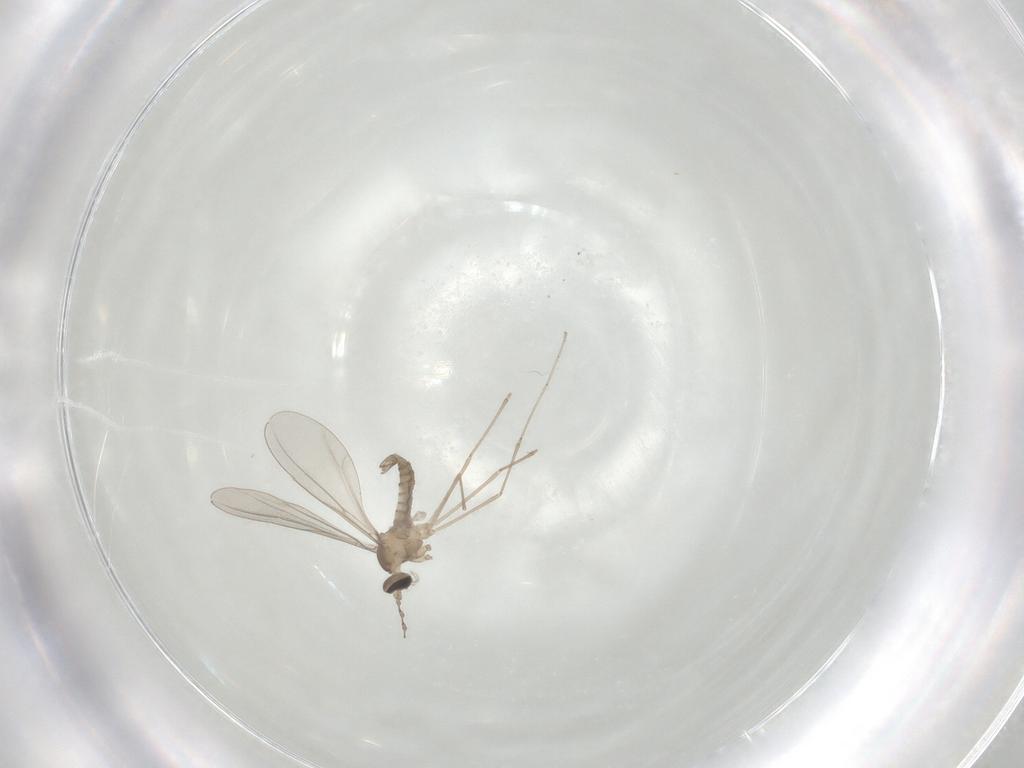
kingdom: Animalia
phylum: Arthropoda
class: Insecta
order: Diptera
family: Cecidomyiidae
